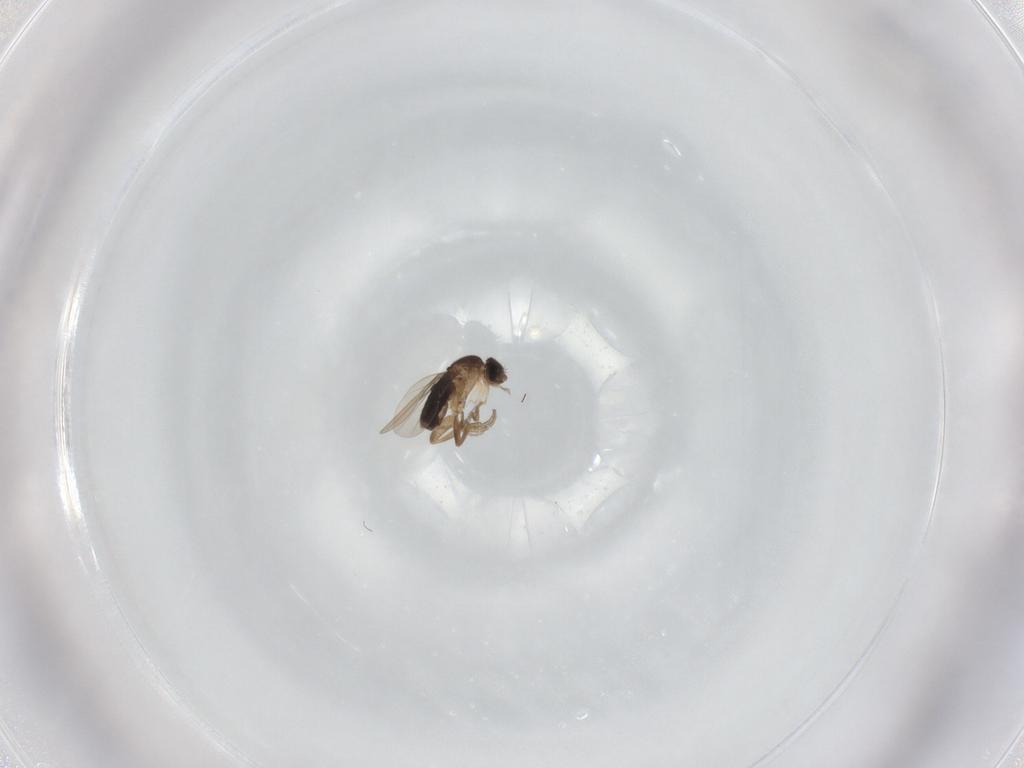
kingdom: Animalia
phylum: Arthropoda
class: Insecta
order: Diptera
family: Phoridae
